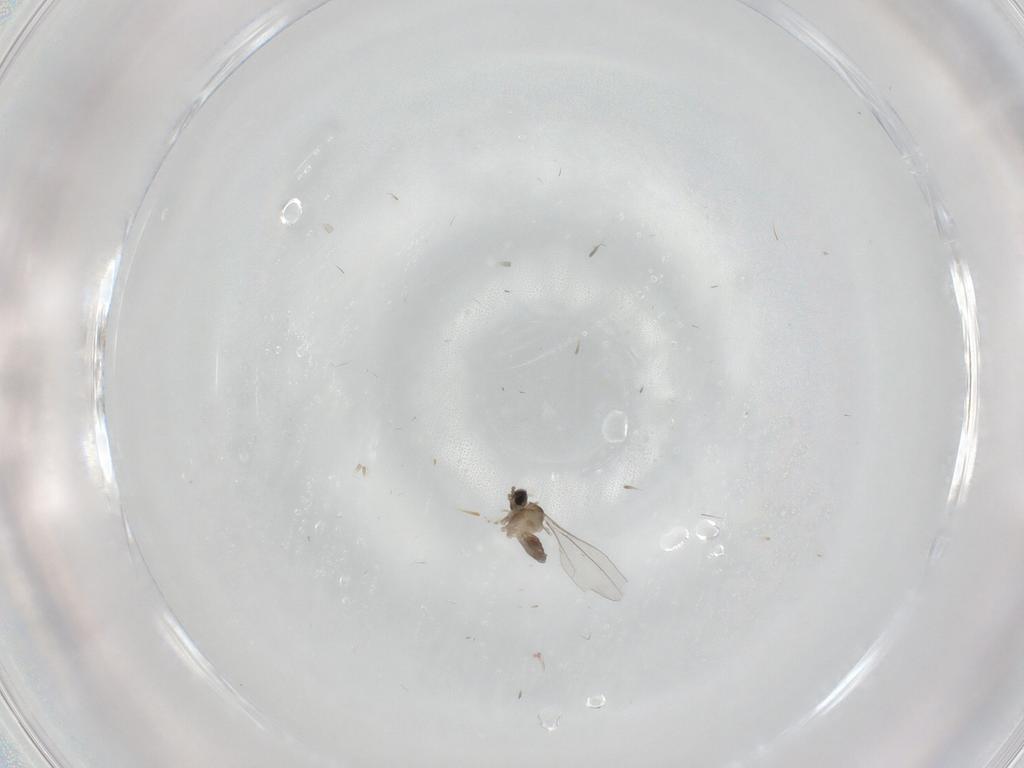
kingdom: Animalia
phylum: Arthropoda
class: Insecta
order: Diptera
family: Cecidomyiidae
